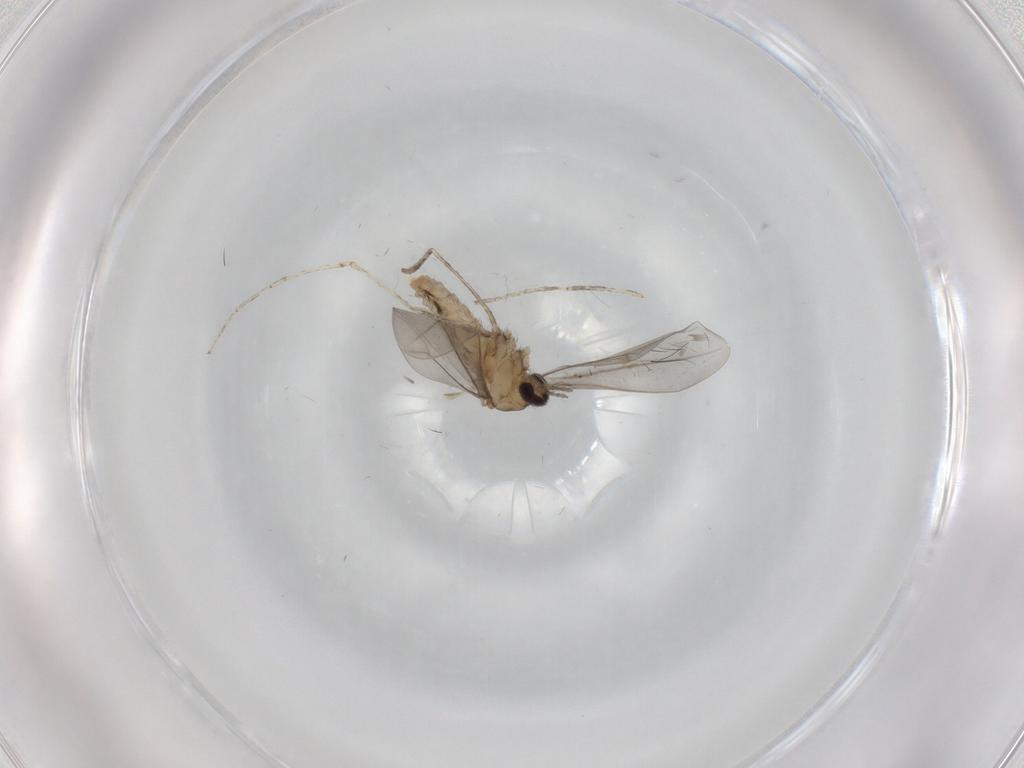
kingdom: Animalia
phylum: Arthropoda
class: Insecta
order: Diptera
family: Cecidomyiidae
